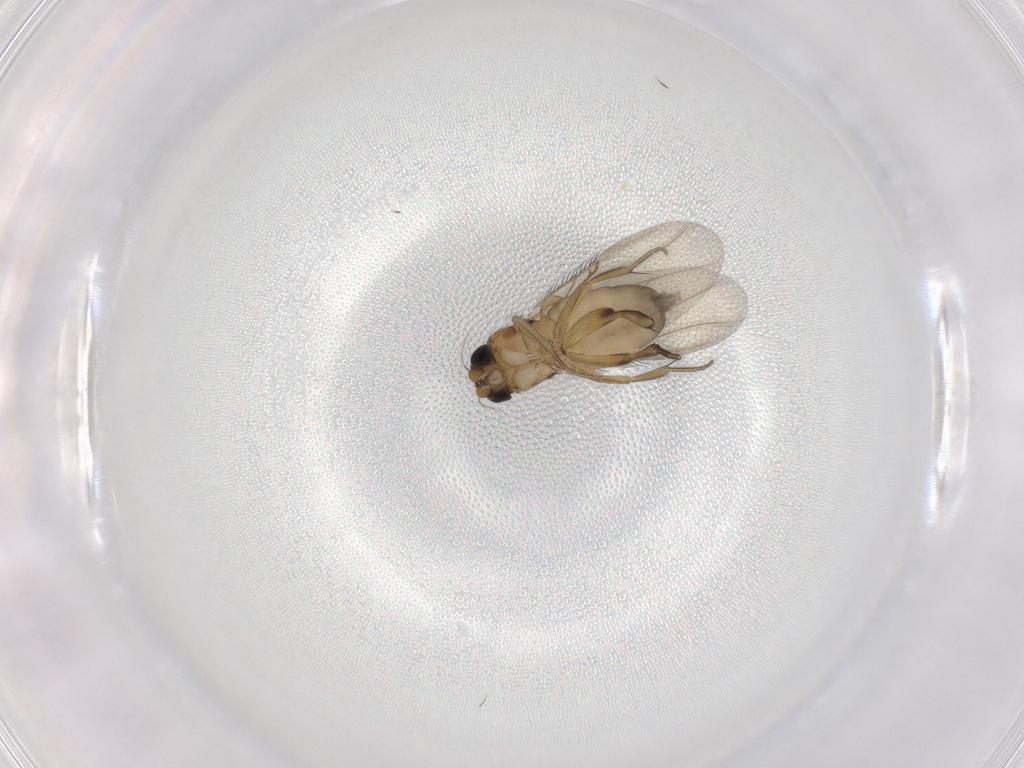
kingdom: Animalia
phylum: Arthropoda
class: Insecta
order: Diptera
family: Phoridae
